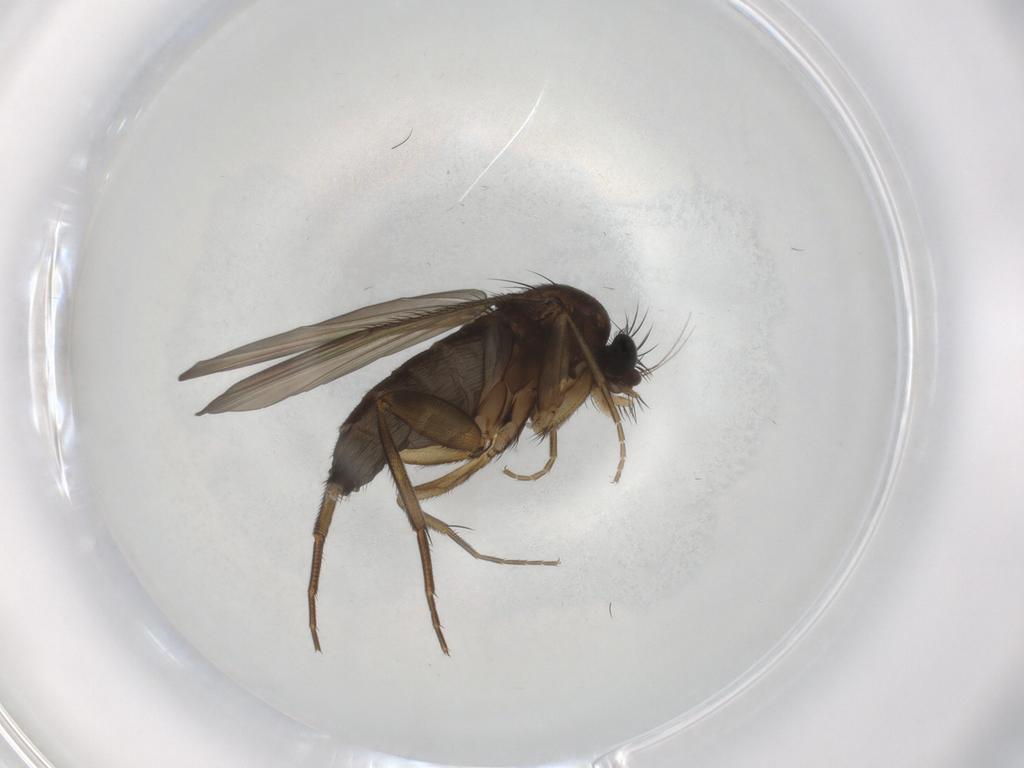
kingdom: Animalia
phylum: Arthropoda
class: Insecta
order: Diptera
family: Phoridae
